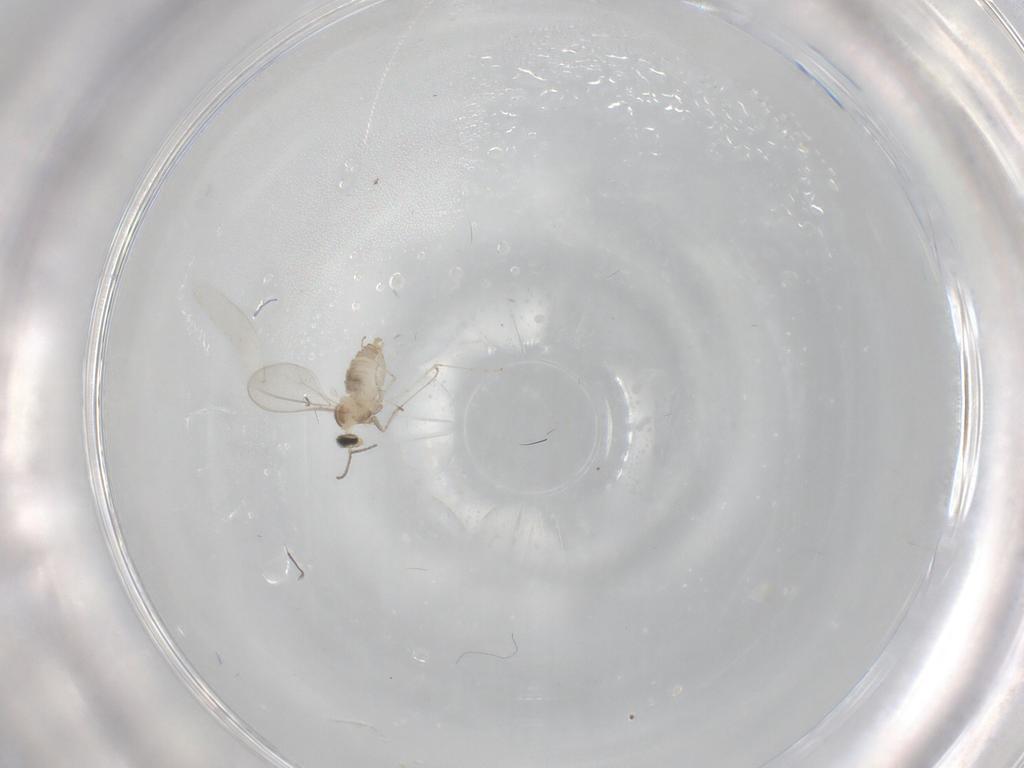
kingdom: Animalia
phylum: Arthropoda
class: Insecta
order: Diptera
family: Cecidomyiidae
